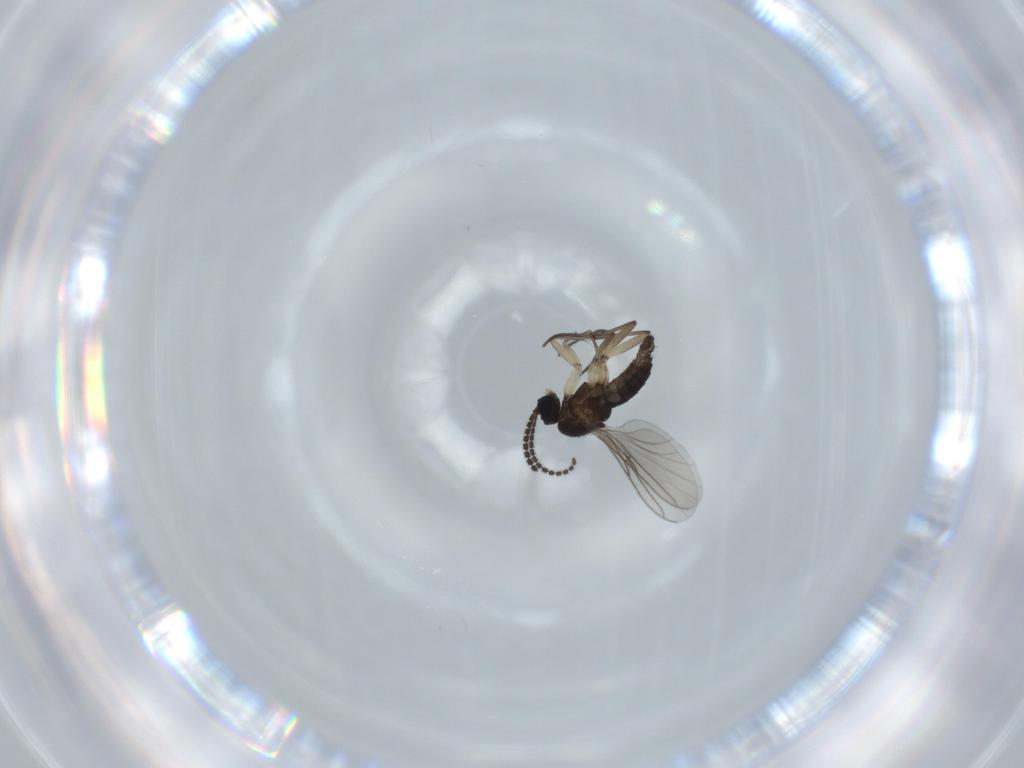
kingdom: Animalia
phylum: Arthropoda
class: Insecta
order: Diptera
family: Sciaridae
